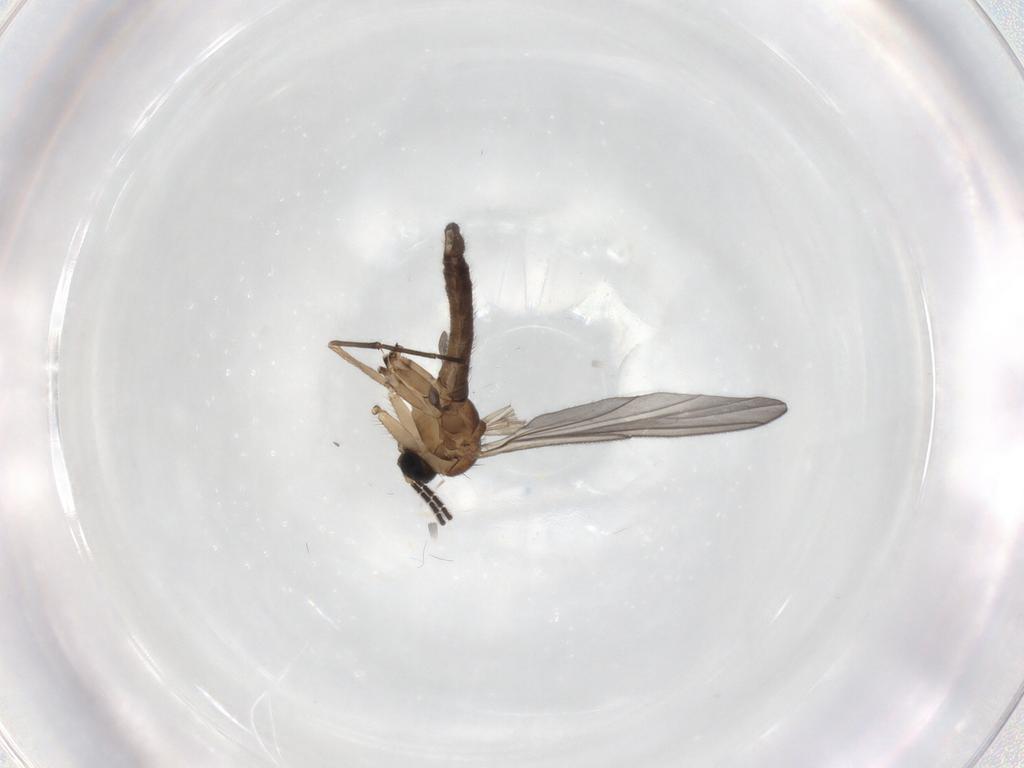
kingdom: Animalia
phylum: Arthropoda
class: Insecta
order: Diptera
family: Sciaridae
